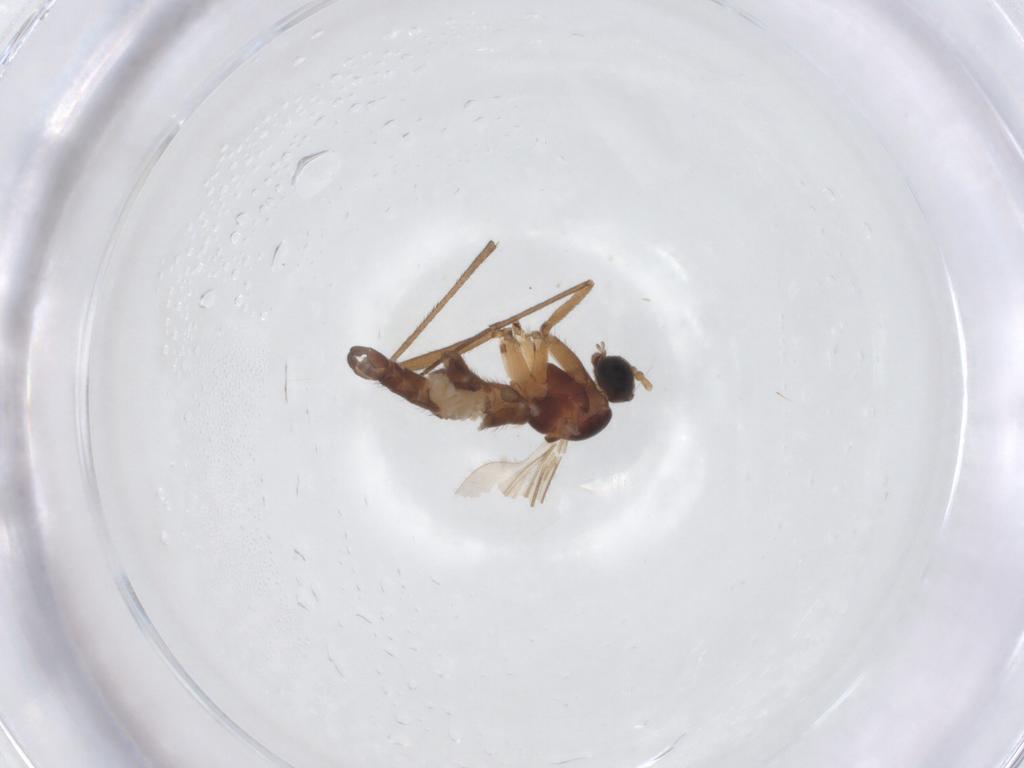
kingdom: Animalia
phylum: Arthropoda
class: Insecta
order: Diptera
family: Sciaridae
